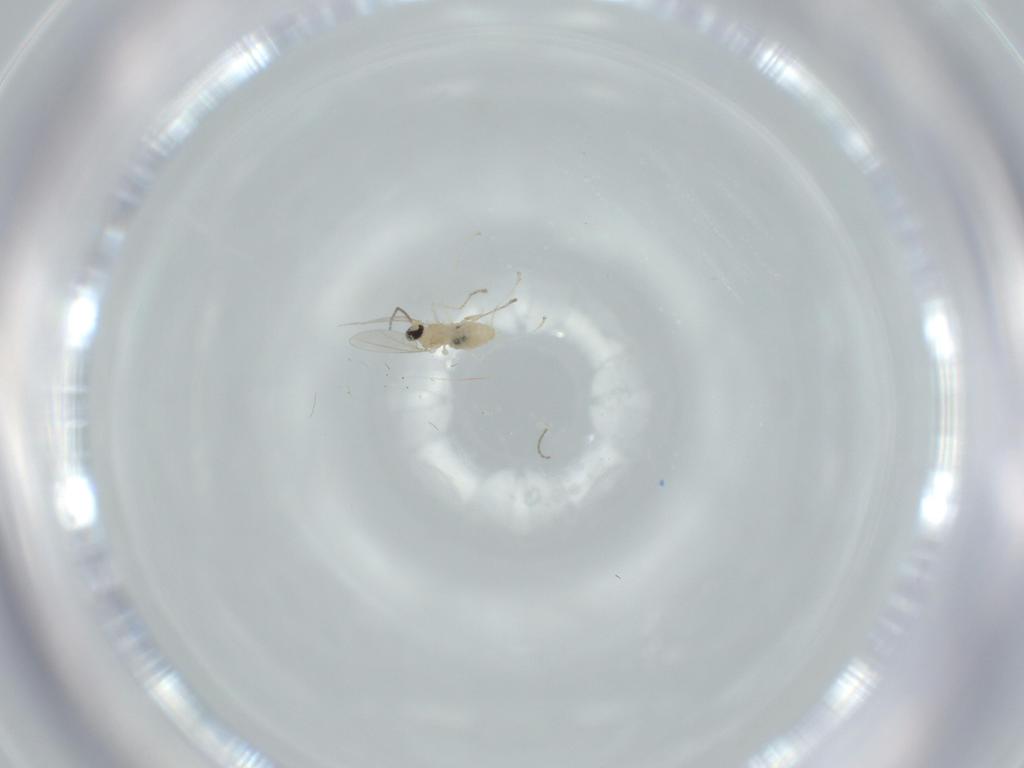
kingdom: Animalia
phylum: Arthropoda
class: Insecta
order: Diptera
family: Cecidomyiidae
